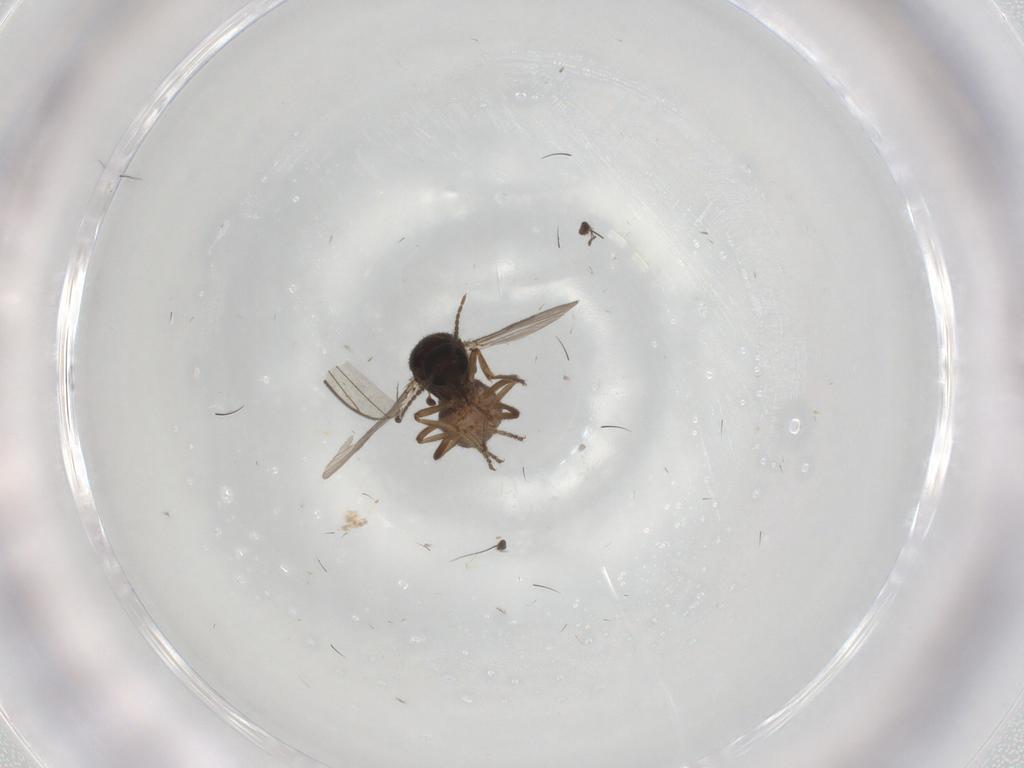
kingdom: Animalia
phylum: Arthropoda
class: Insecta
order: Diptera
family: Ceratopogonidae
